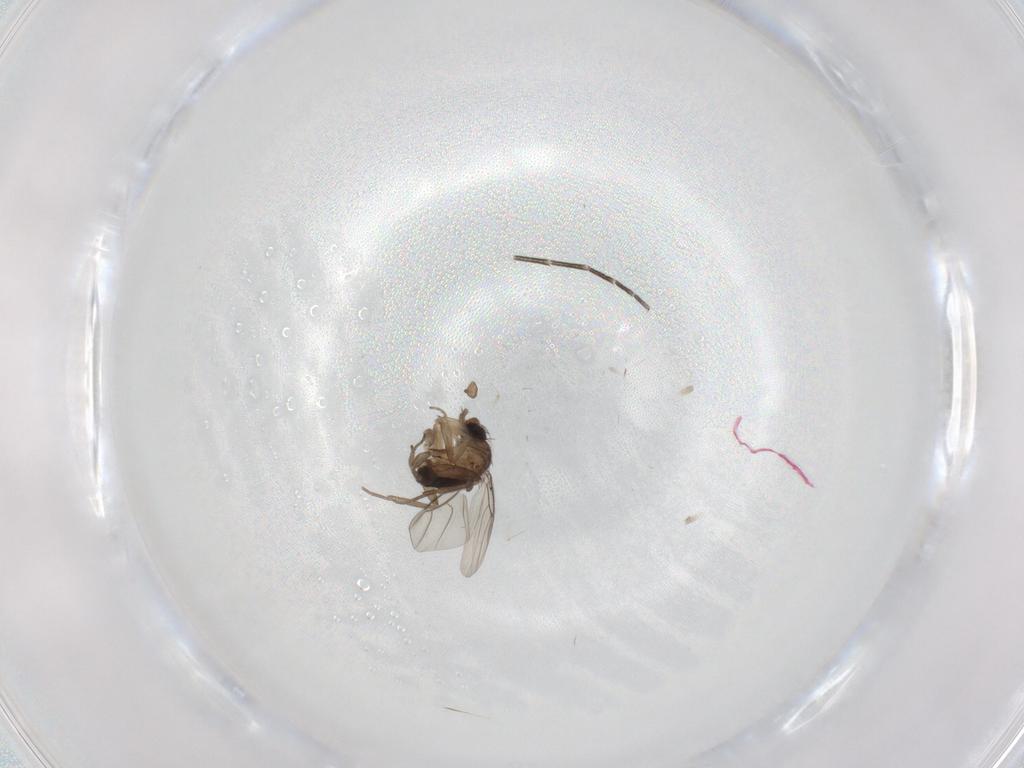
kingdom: Animalia
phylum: Arthropoda
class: Insecta
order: Diptera
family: Phoridae
